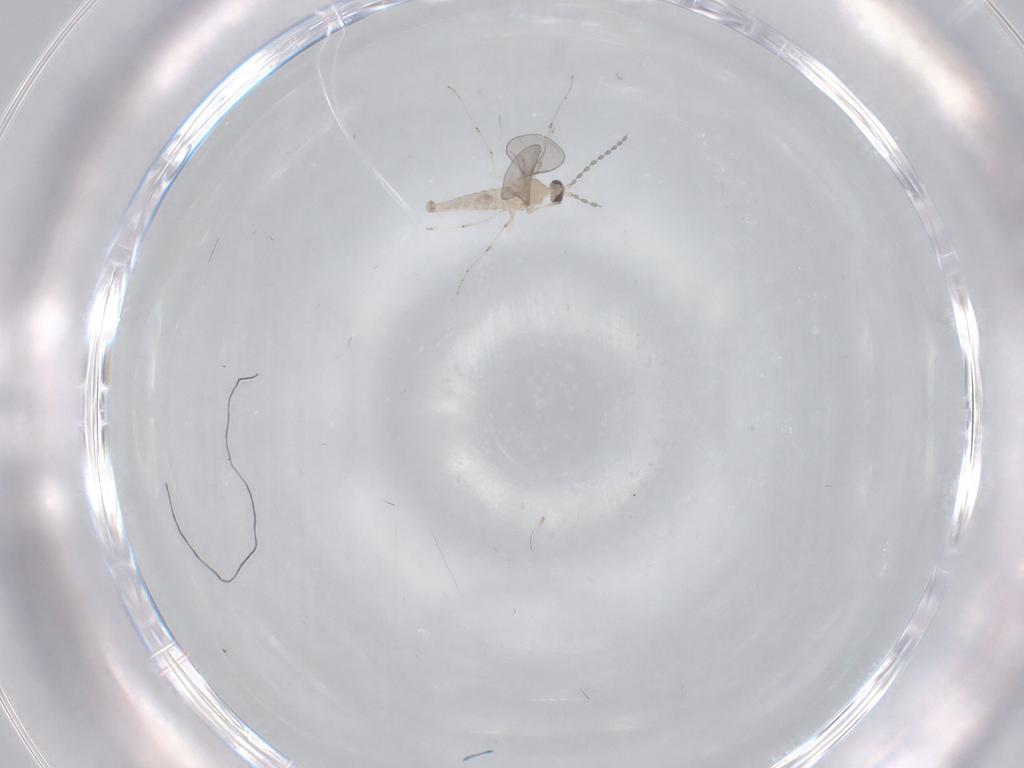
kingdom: Animalia
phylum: Arthropoda
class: Insecta
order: Diptera
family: Cecidomyiidae
